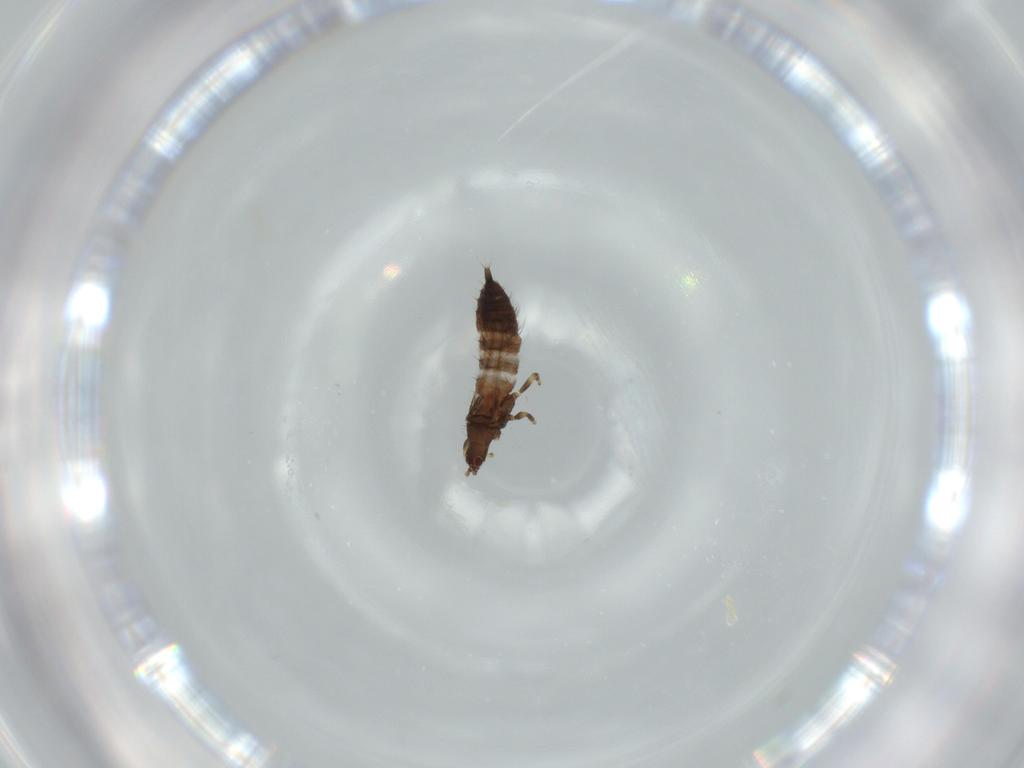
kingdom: Animalia
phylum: Arthropoda
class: Insecta
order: Thysanoptera
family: Phlaeothripidae
